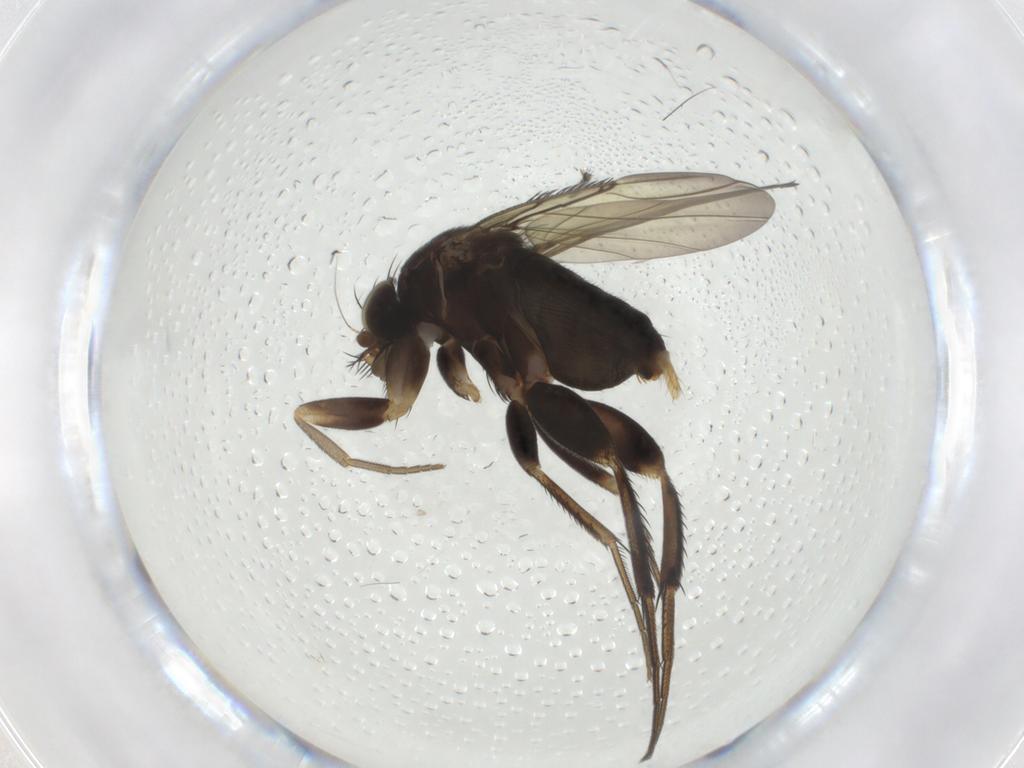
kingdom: Animalia
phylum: Arthropoda
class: Insecta
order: Diptera
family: Phoridae
